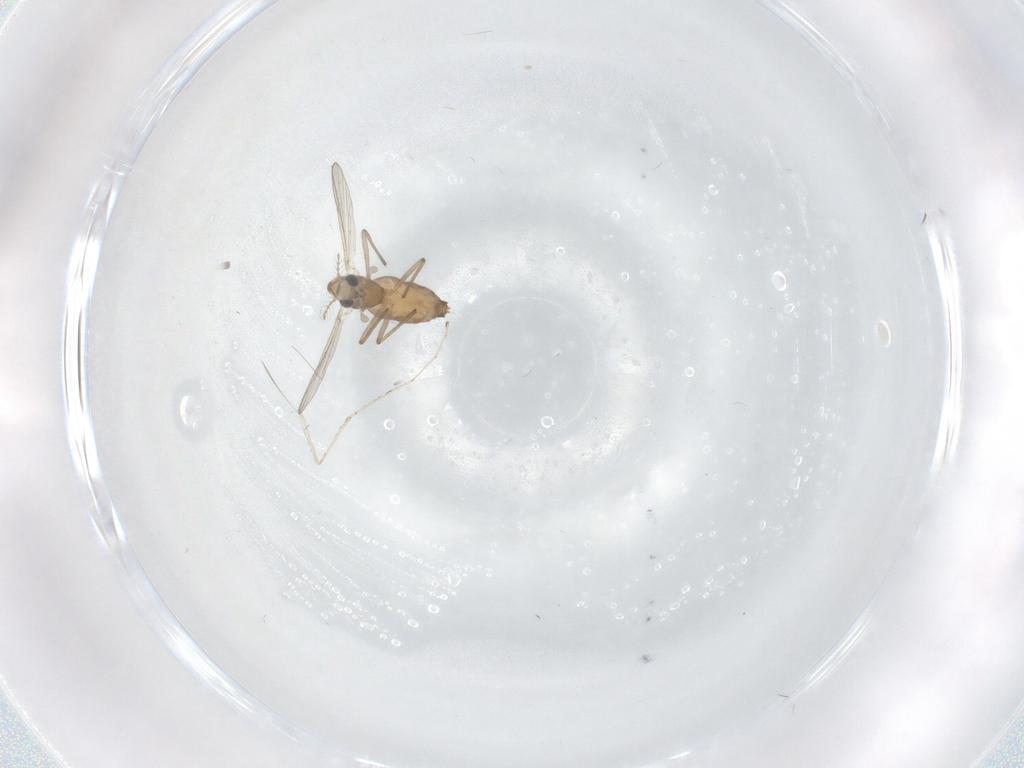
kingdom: Animalia
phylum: Arthropoda
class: Insecta
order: Diptera
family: Chironomidae
